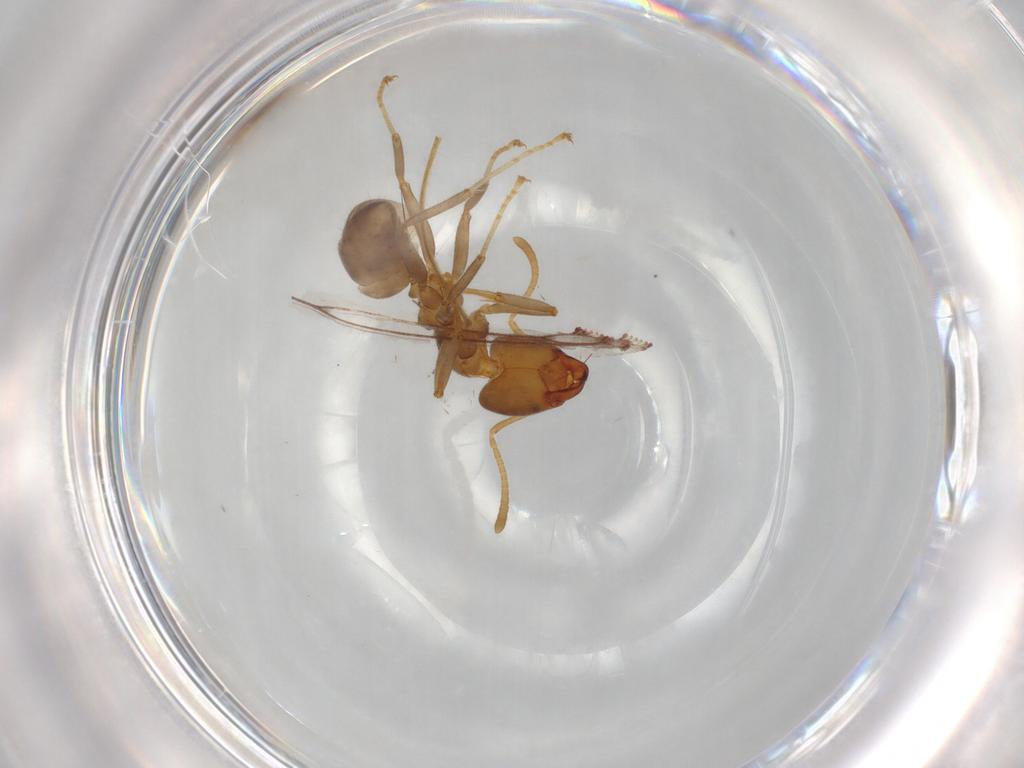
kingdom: Animalia
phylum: Arthropoda
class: Insecta
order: Hymenoptera
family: Formicidae
